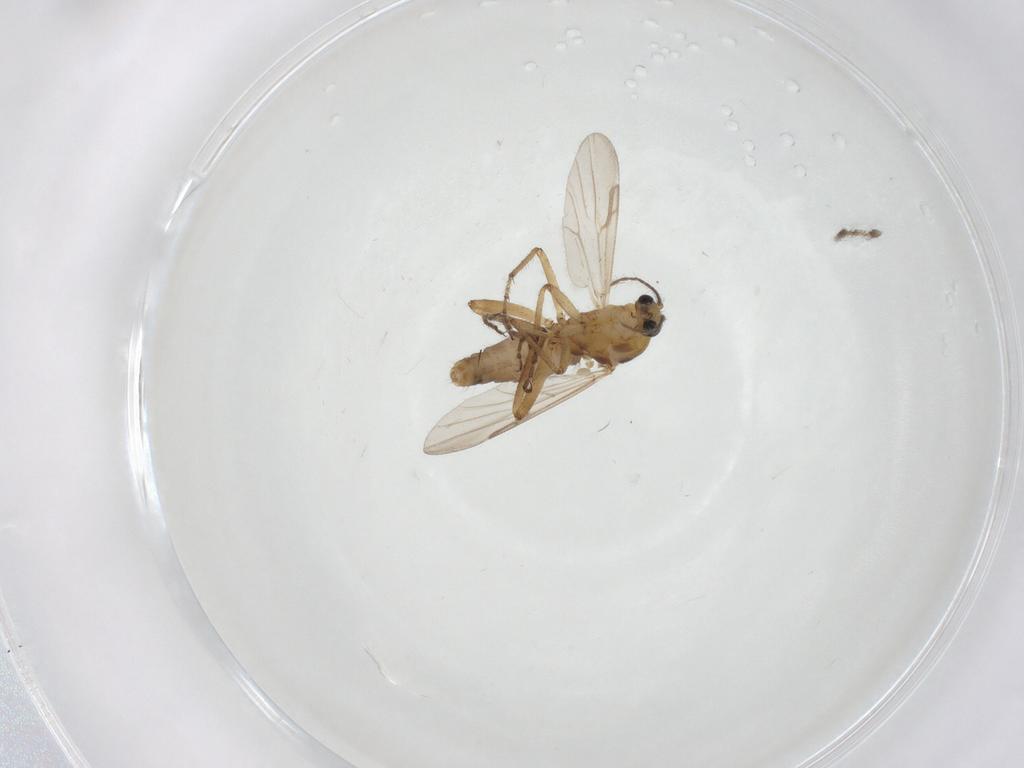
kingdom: Animalia
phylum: Arthropoda
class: Insecta
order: Diptera
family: Ceratopogonidae
